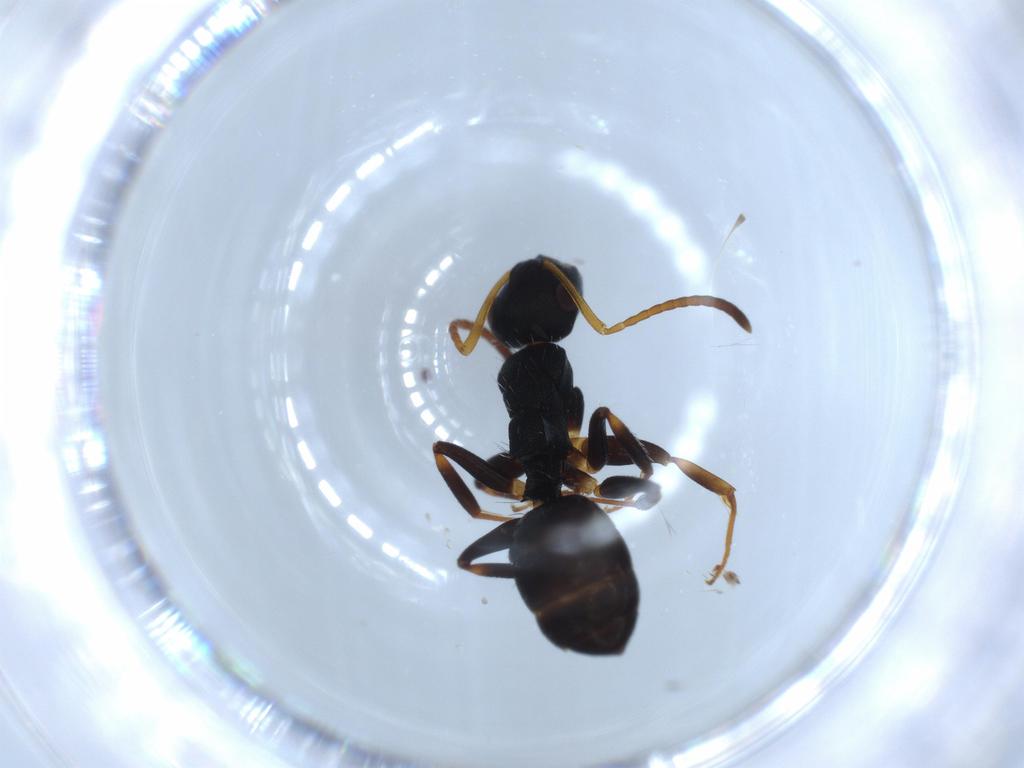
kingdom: Animalia
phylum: Arthropoda
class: Insecta
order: Hymenoptera
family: Formicidae
